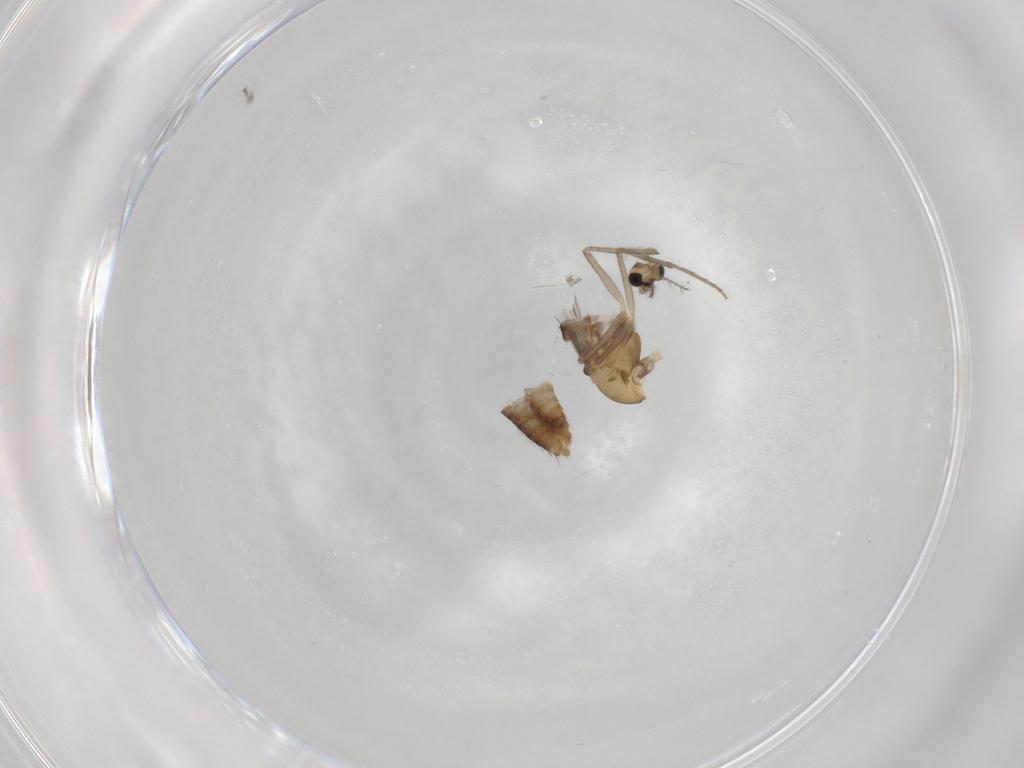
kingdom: Animalia
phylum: Arthropoda
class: Insecta
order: Diptera
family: Chironomidae
